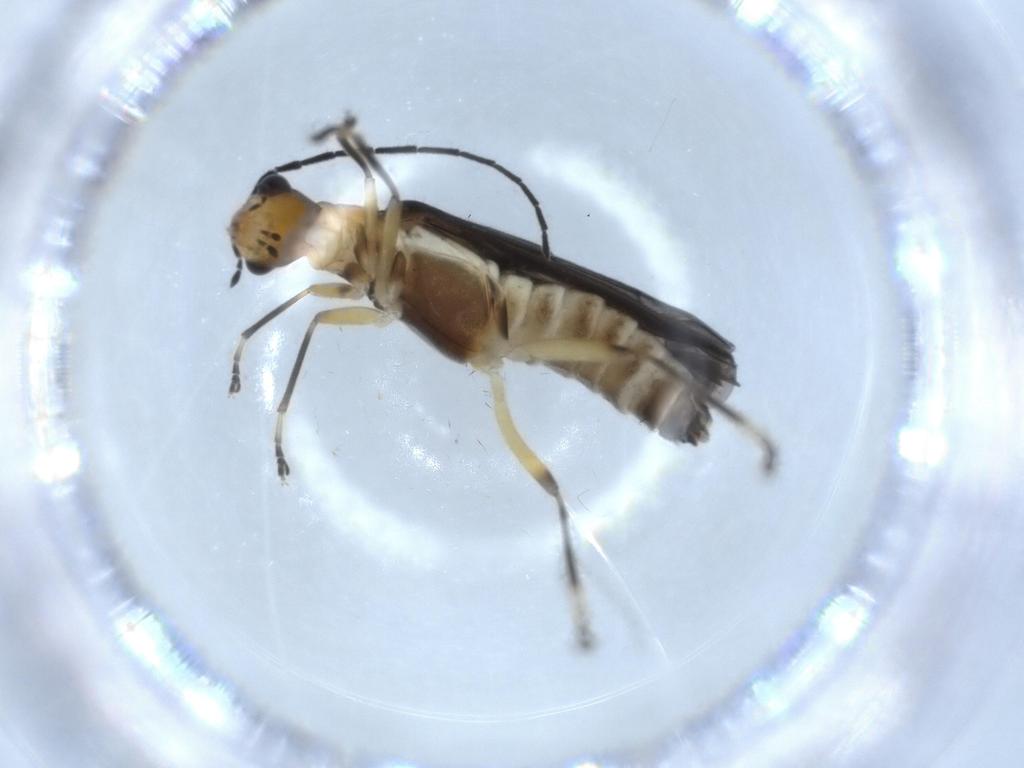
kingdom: Animalia
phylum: Arthropoda
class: Insecta
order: Coleoptera
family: Cantharidae
